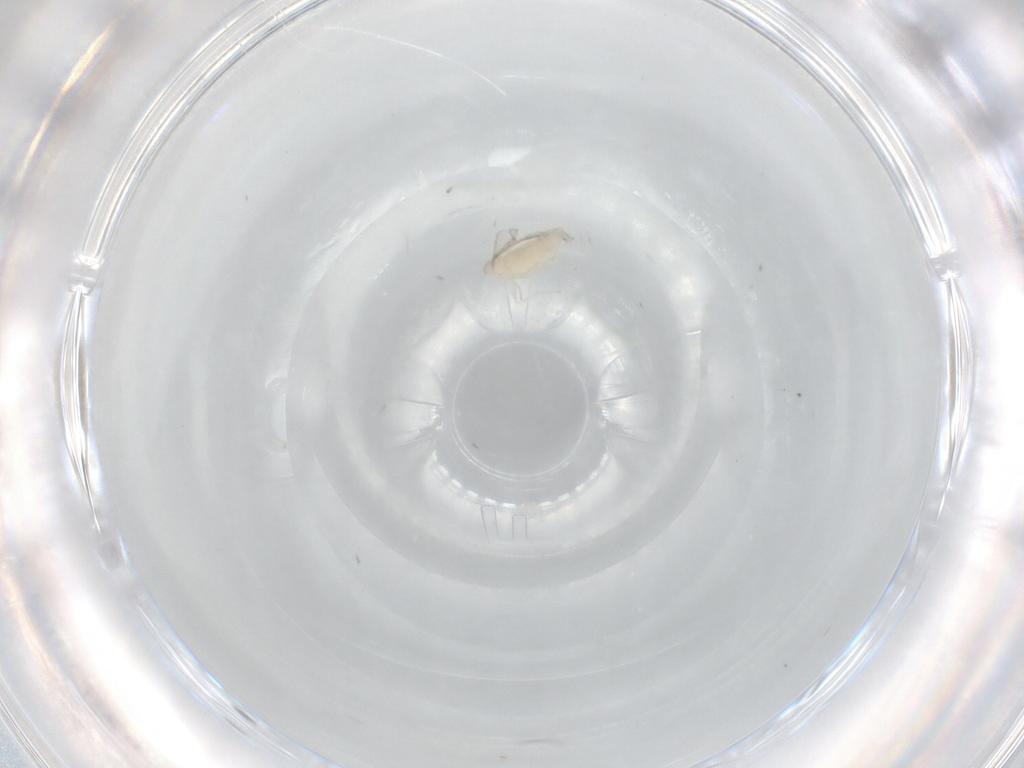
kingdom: Animalia
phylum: Arthropoda
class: Insecta
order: Diptera
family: Cecidomyiidae
